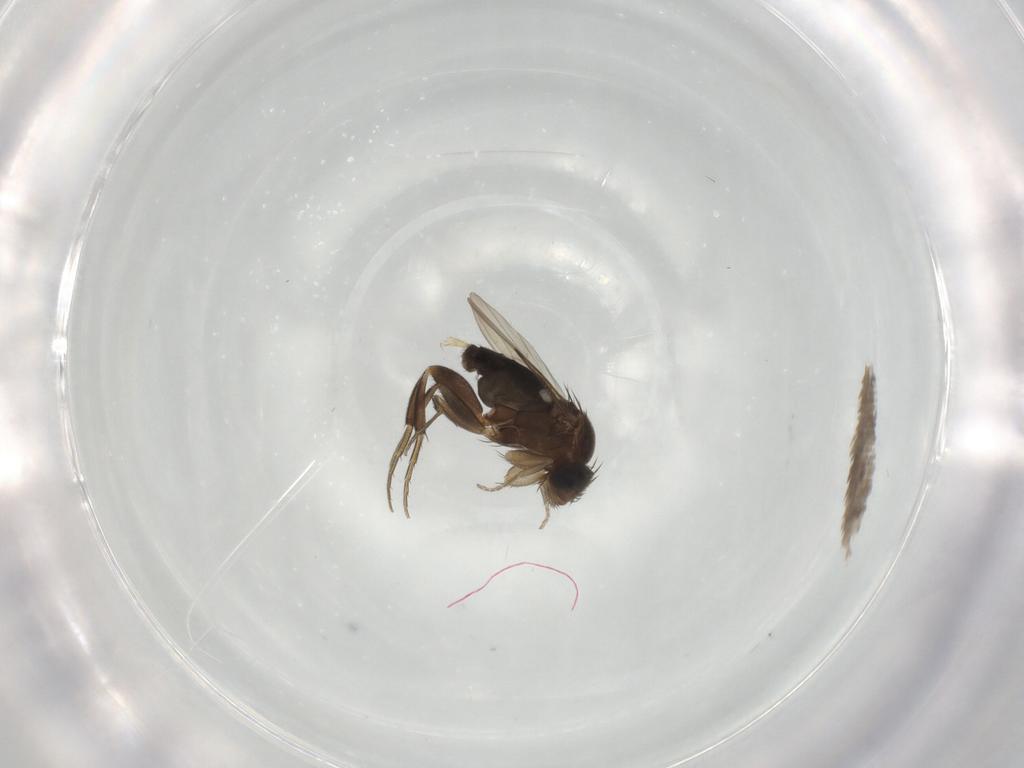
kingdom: Animalia
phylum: Arthropoda
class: Insecta
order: Diptera
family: Phoridae
